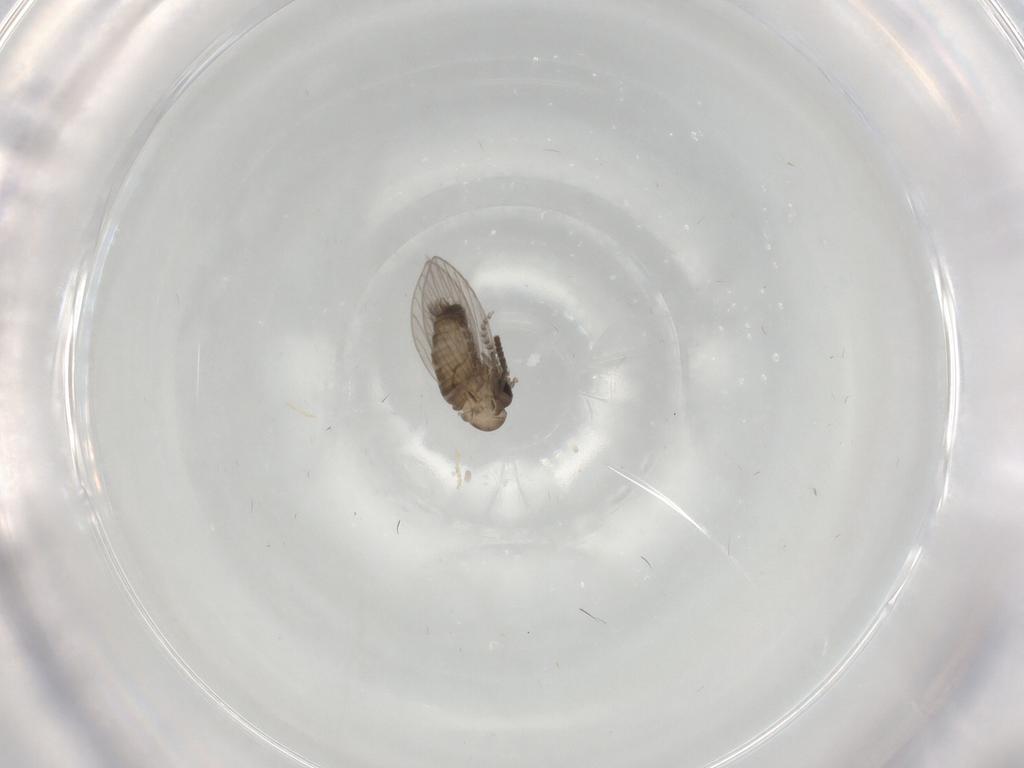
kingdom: Animalia
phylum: Arthropoda
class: Insecta
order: Diptera
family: Psychodidae
